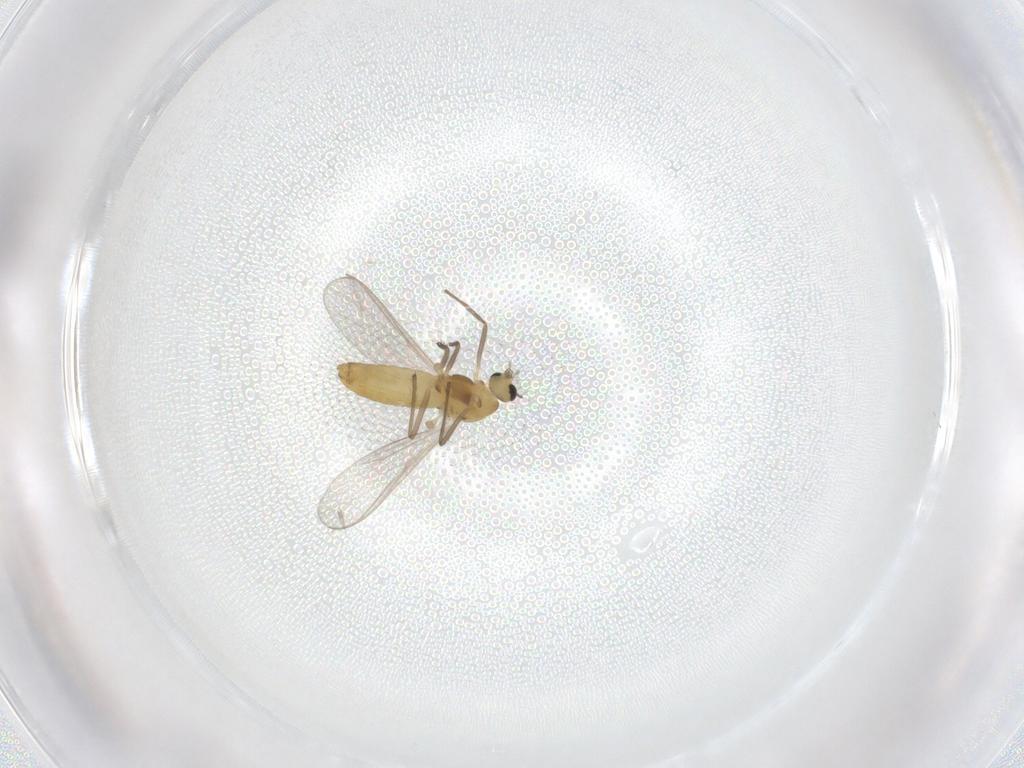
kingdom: Animalia
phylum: Arthropoda
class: Insecta
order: Diptera
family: Chironomidae
